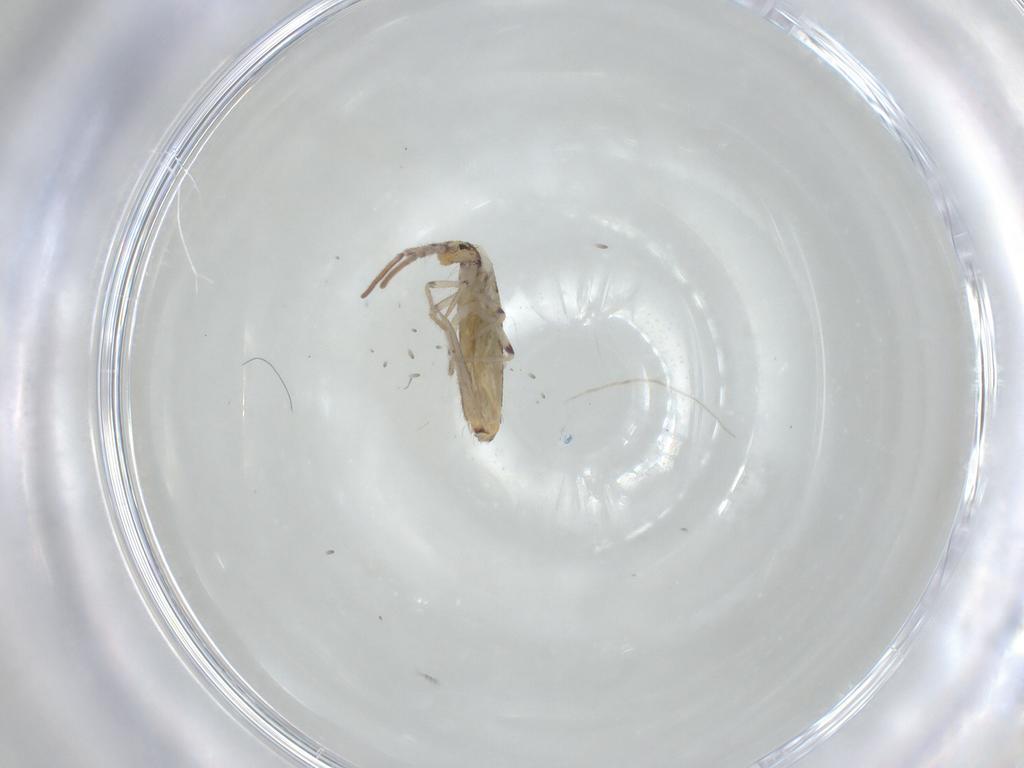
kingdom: Animalia
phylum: Arthropoda
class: Collembola
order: Entomobryomorpha
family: Entomobryidae
